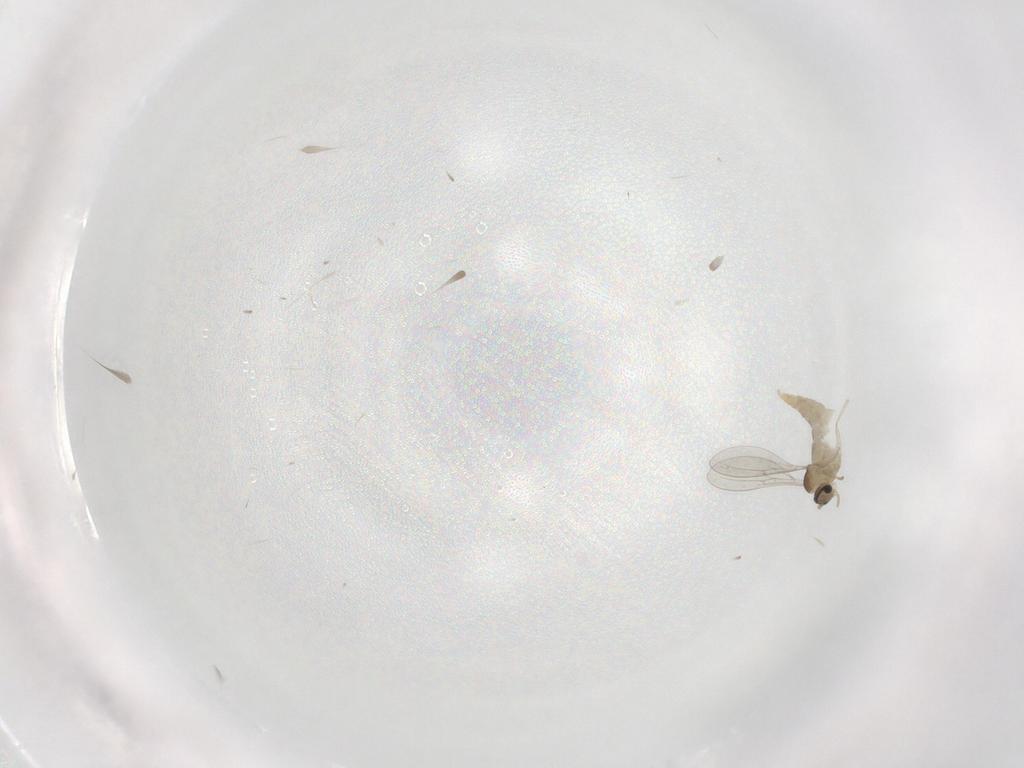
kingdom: Animalia
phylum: Arthropoda
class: Insecta
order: Diptera
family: Cecidomyiidae
